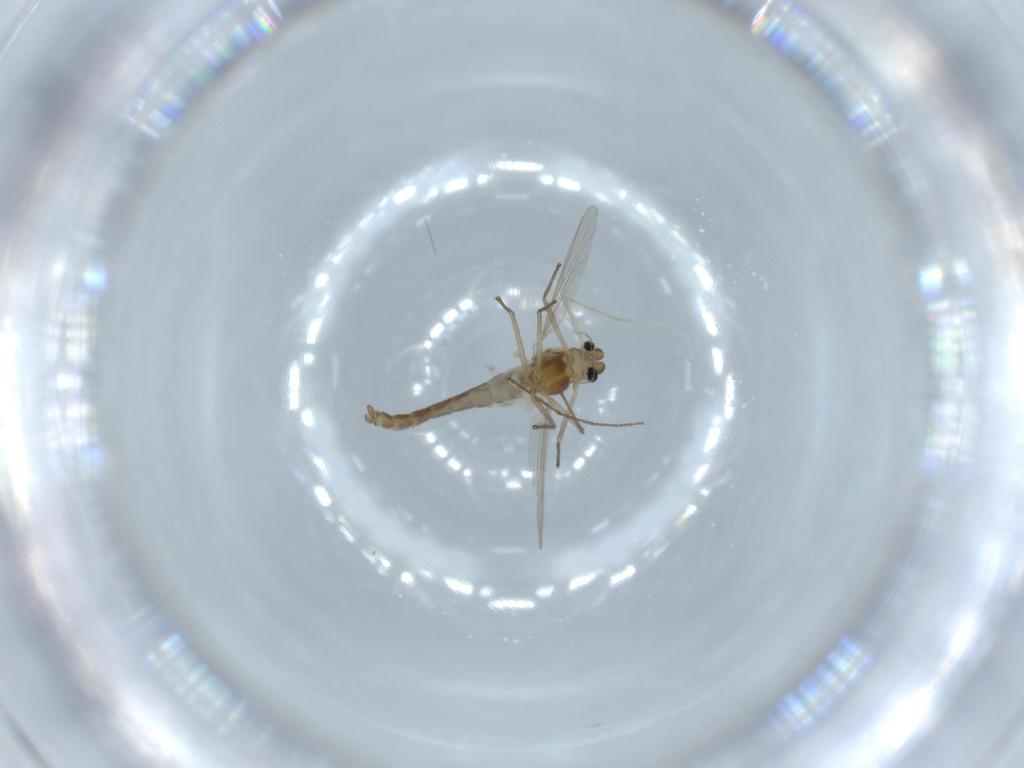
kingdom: Animalia
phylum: Arthropoda
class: Insecta
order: Diptera
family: Chironomidae
